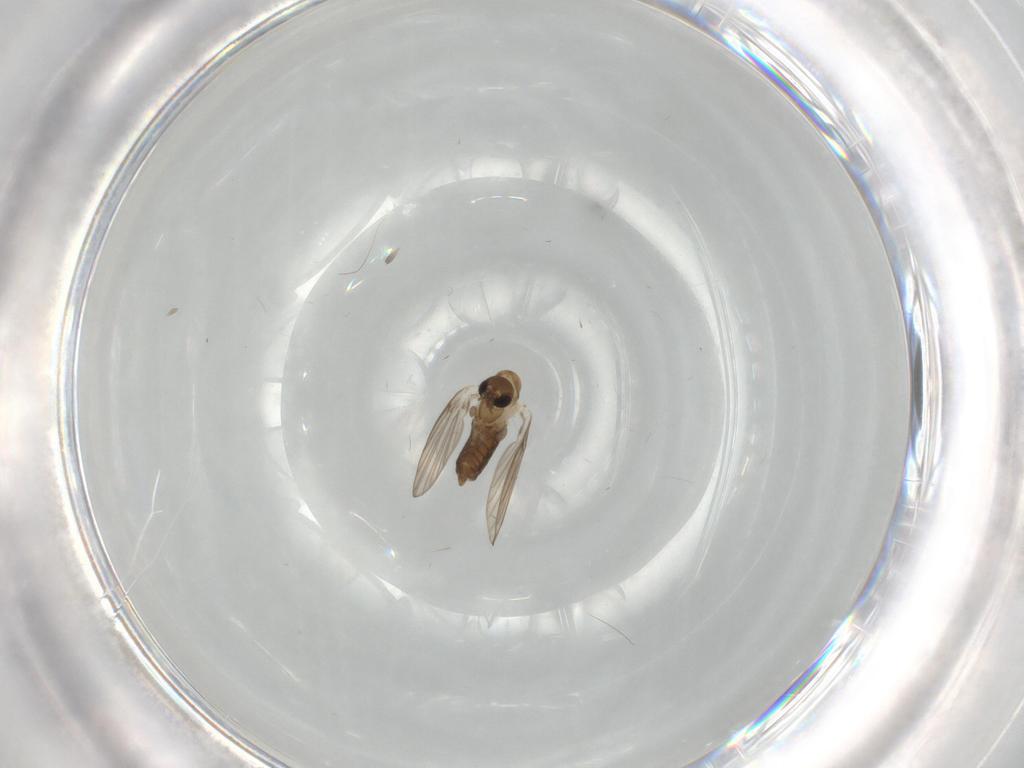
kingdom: Animalia
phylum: Arthropoda
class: Insecta
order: Diptera
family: Psychodidae
